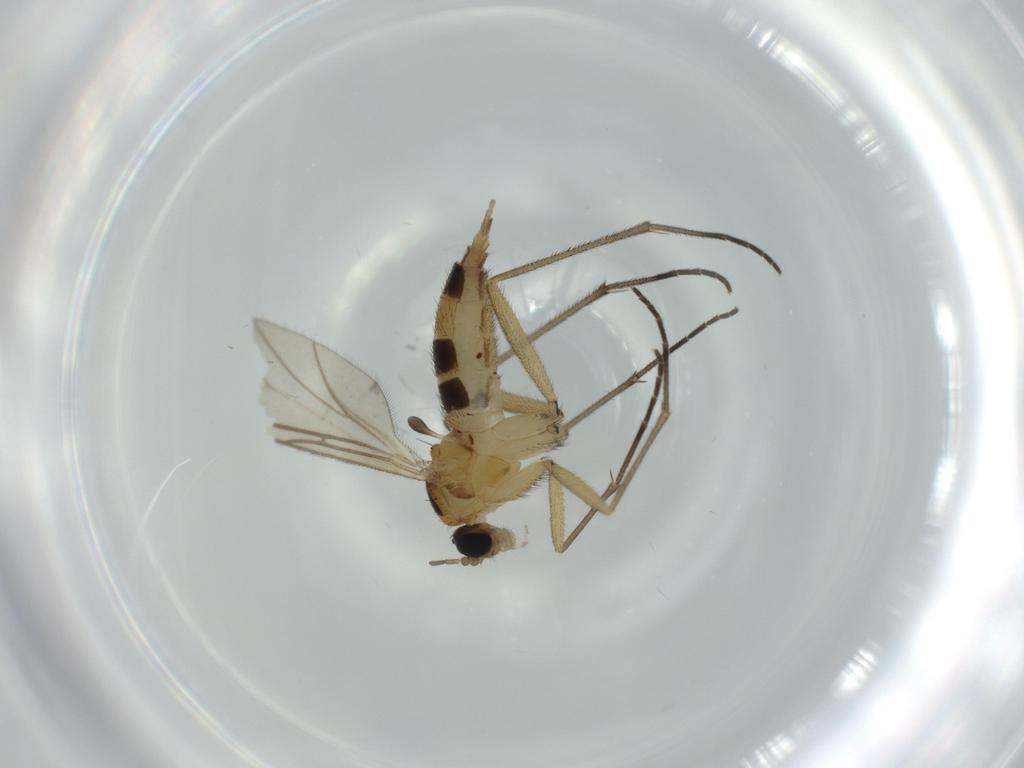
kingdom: Animalia
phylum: Arthropoda
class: Insecta
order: Diptera
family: Sciaridae
